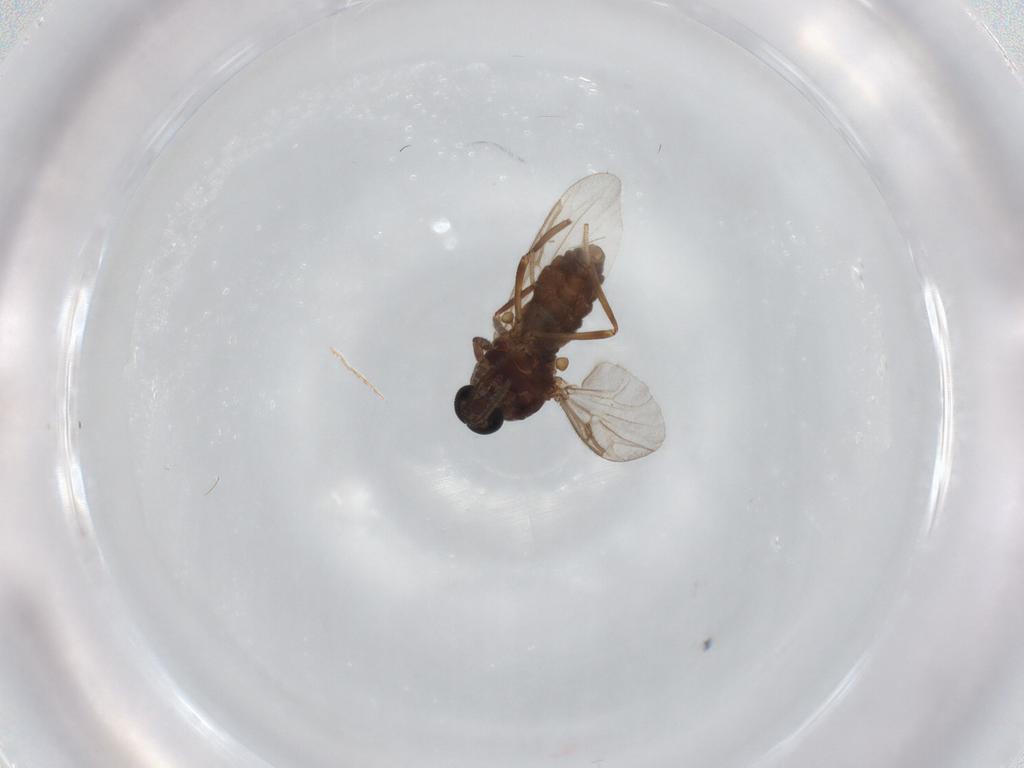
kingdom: Animalia
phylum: Arthropoda
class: Insecta
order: Diptera
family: Ceratopogonidae
